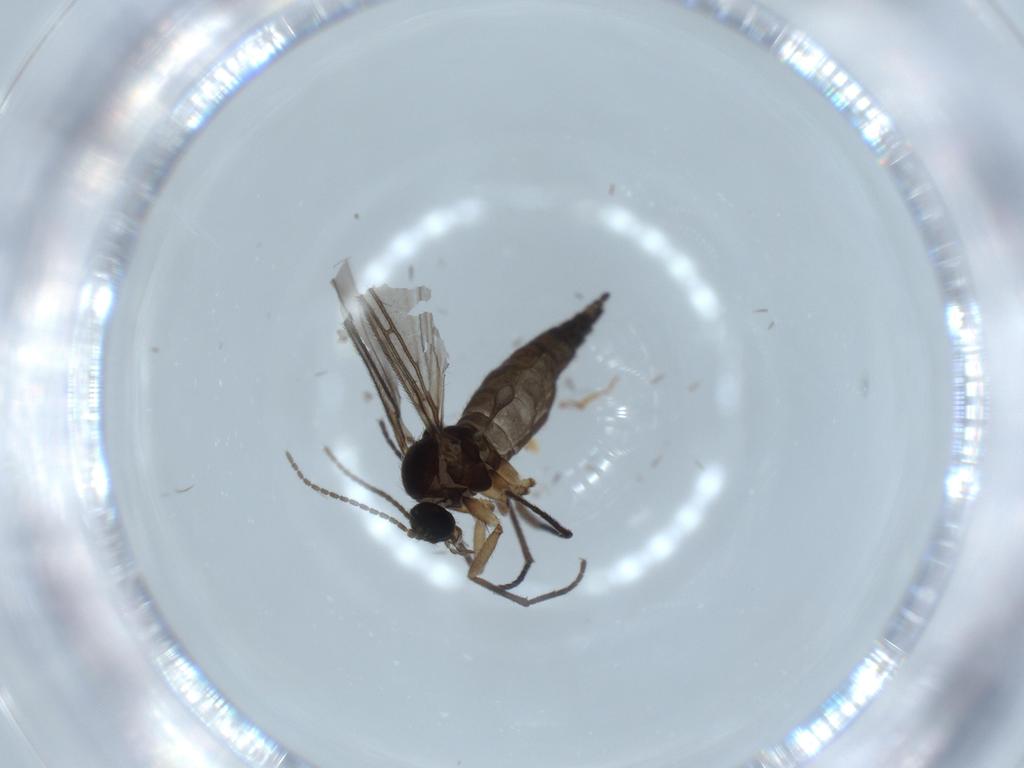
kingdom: Animalia
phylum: Arthropoda
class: Insecta
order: Diptera
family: Sciaridae
